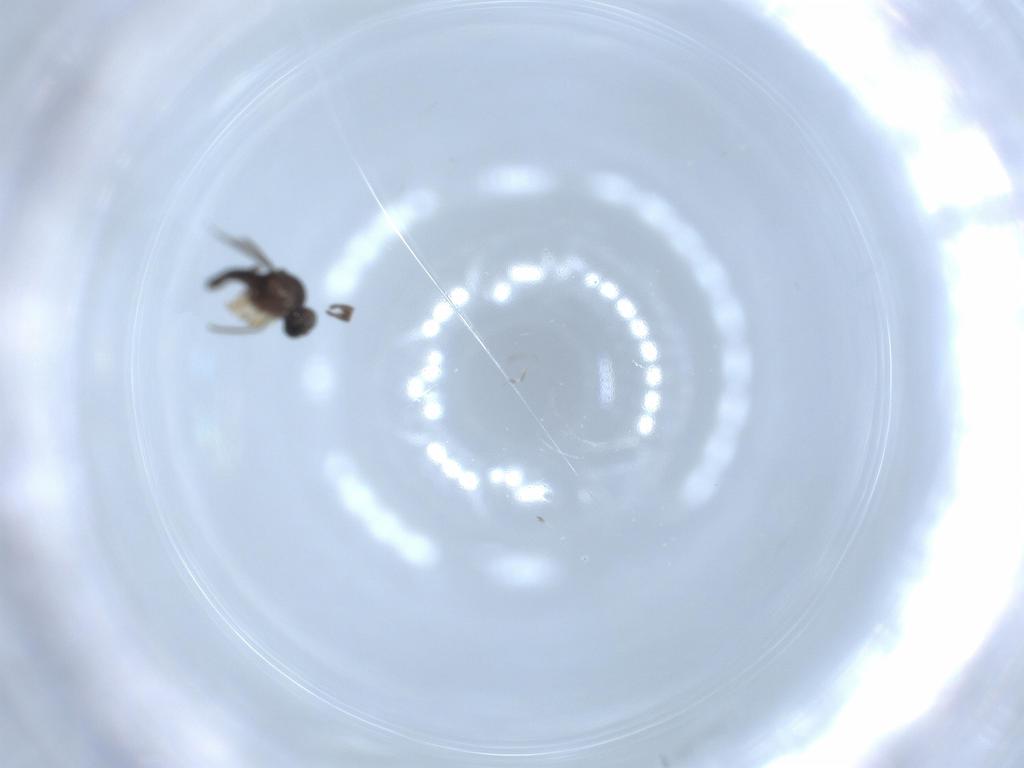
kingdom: Animalia
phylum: Arthropoda
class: Insecta
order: Diptera
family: Sciaridae
